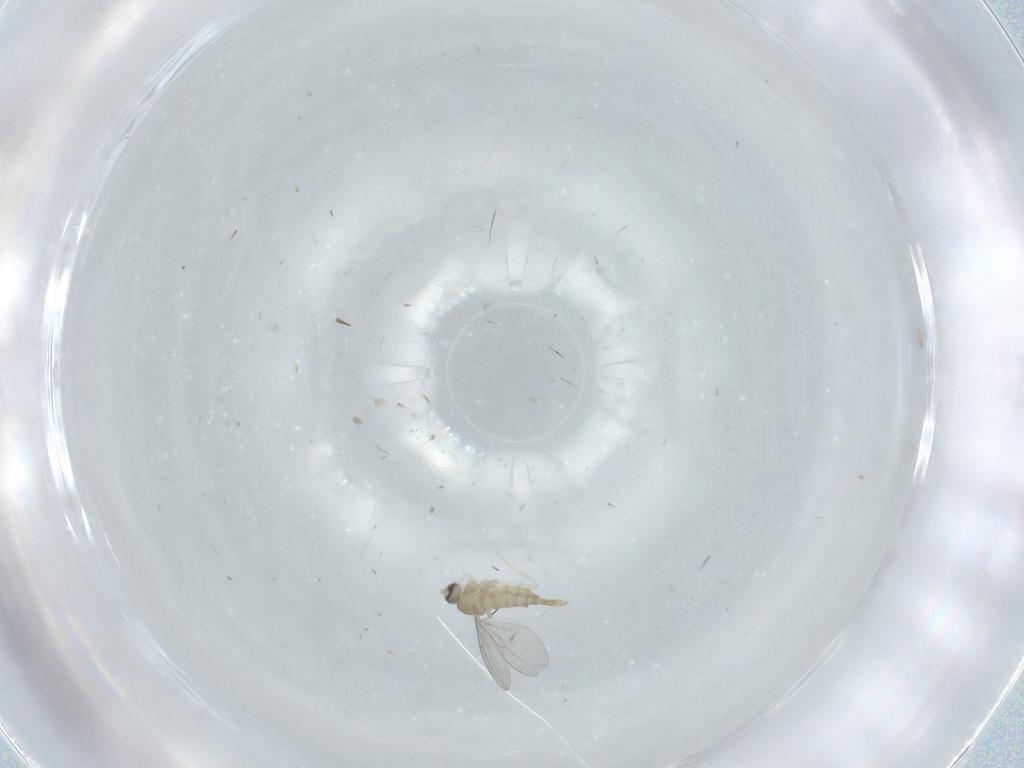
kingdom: Animalia
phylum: Arthropoda
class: Insecta
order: Diptera
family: Cecidomyiidae
